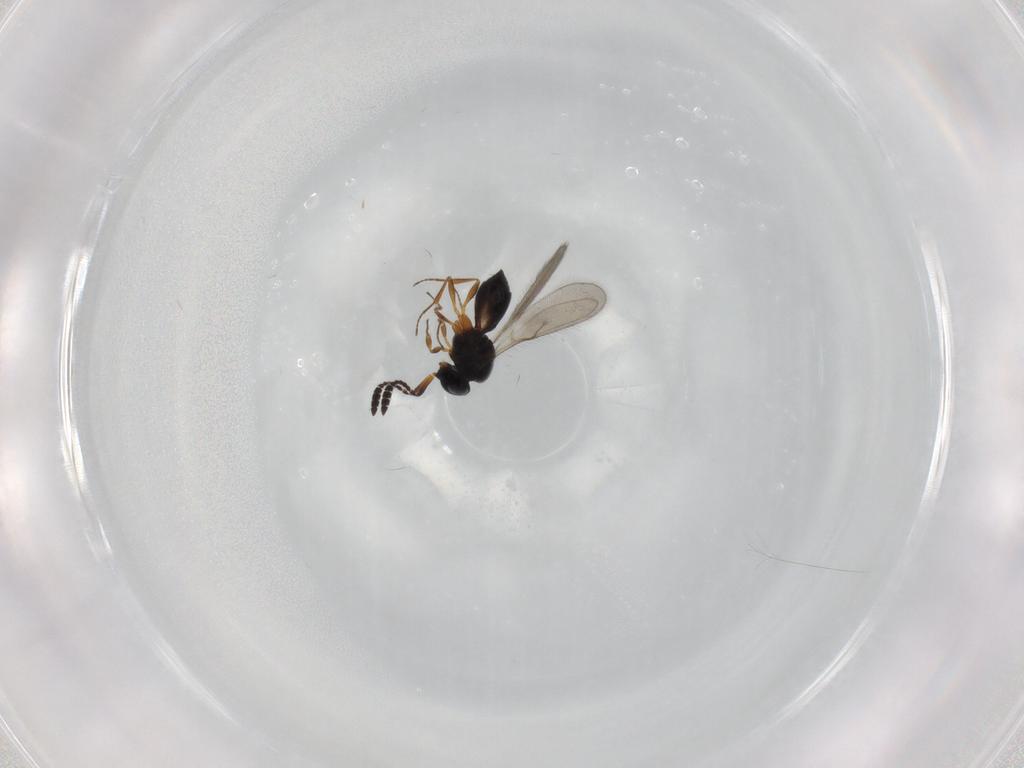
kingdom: Animalia
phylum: Arthropoda
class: Insecta
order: Hymenoptera
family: Scelionidae
